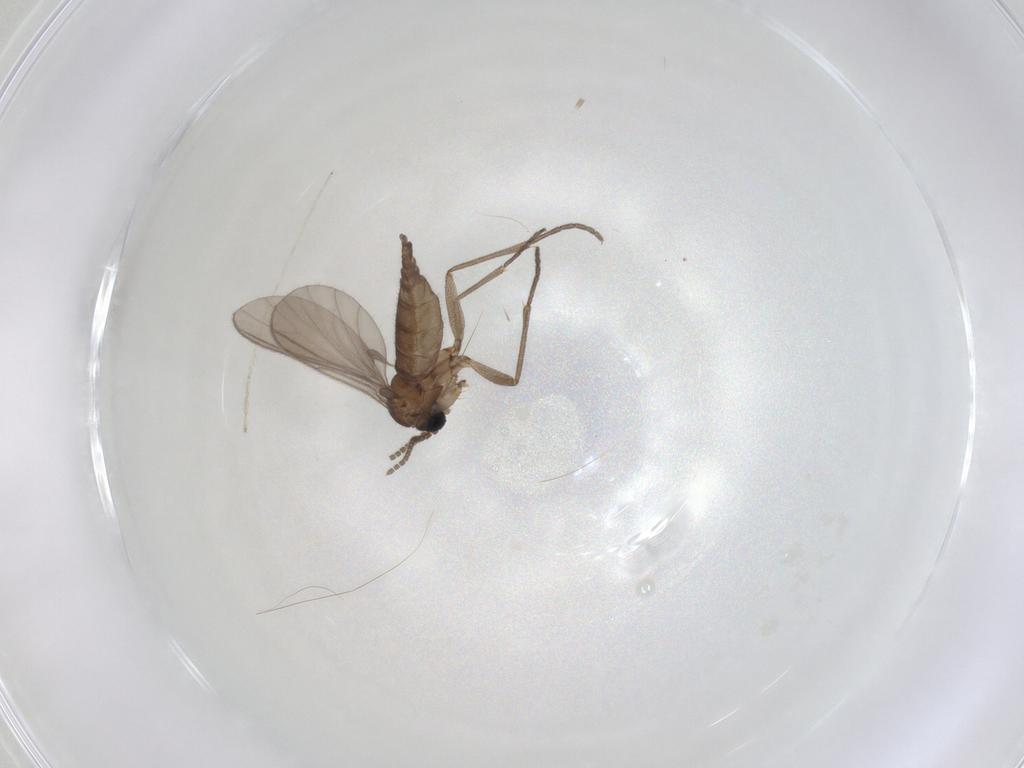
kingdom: Animalia
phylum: Arthropoda
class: Insecta
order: Diptera
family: Sciaridae
